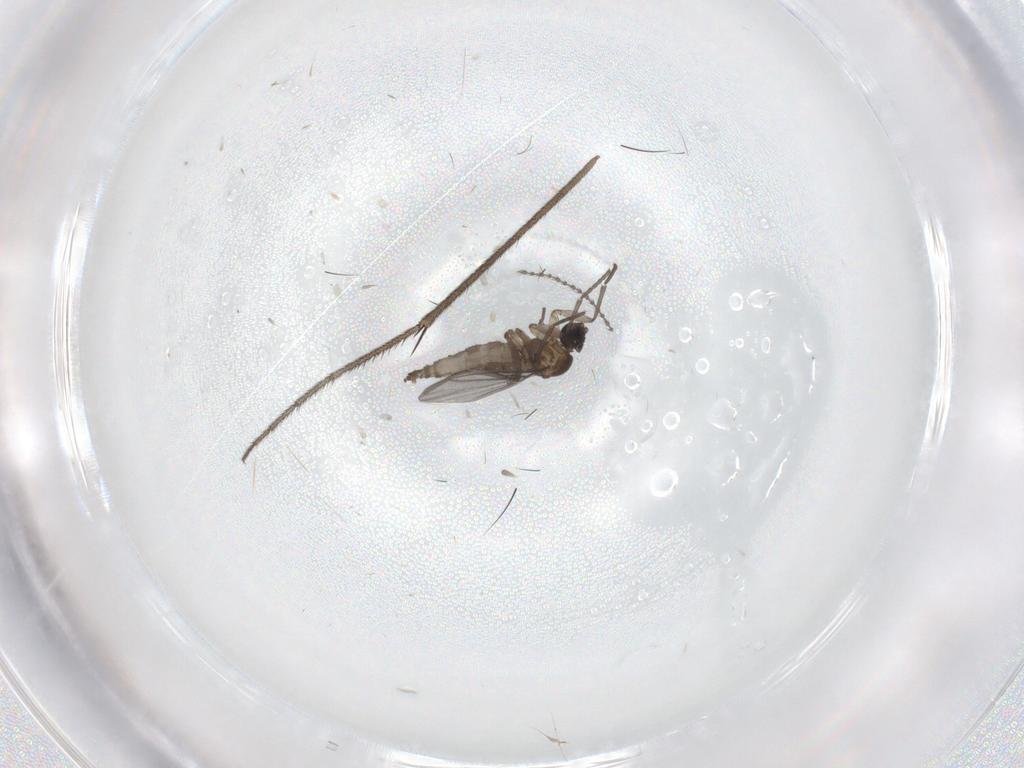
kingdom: Animalia
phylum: Arthropoda
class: Insecta
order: Diptera
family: Sciaridae
